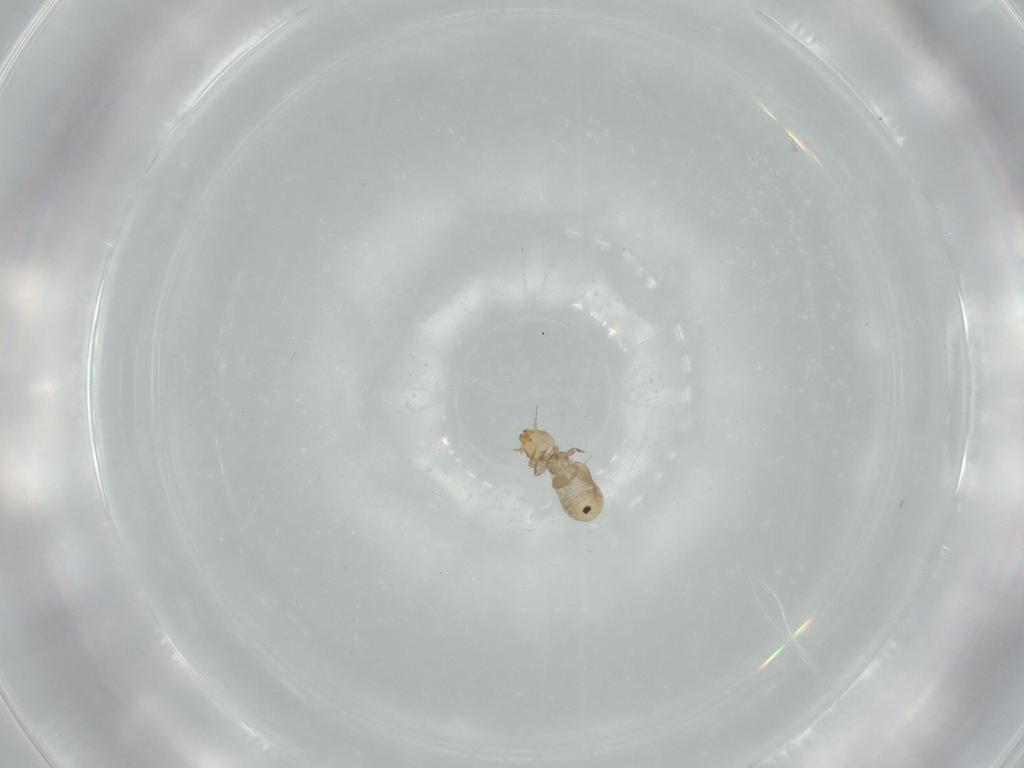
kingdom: Animalia
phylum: Arthropoda
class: Insecta
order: Psocodea
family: Liposcelididae
